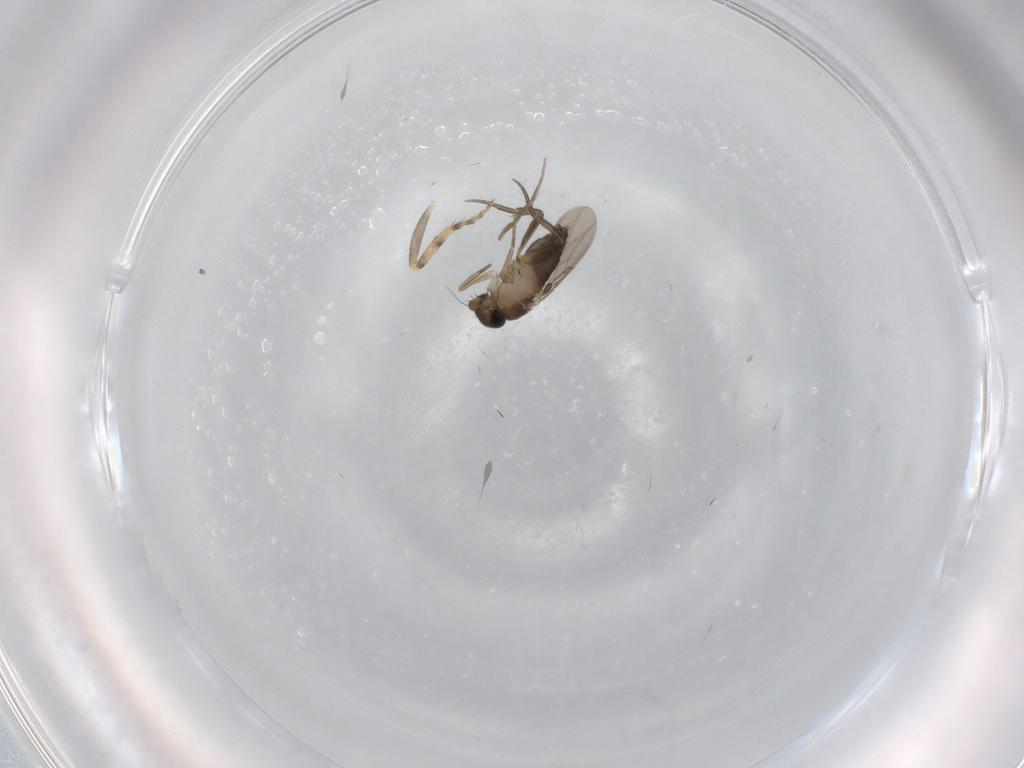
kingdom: Animalia
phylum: Arthropoda
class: Insecta
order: Diptera
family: Phoridae
